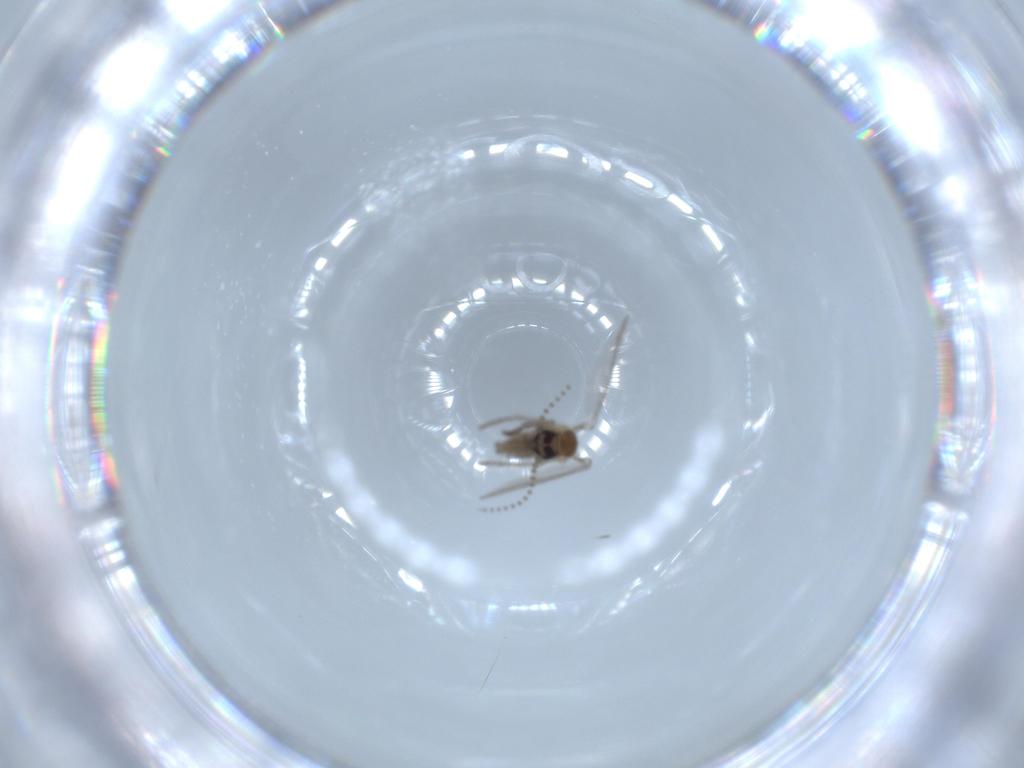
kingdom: Animalia
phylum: Arthropoda
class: Insecta
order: Diptera
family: Psychodidae
